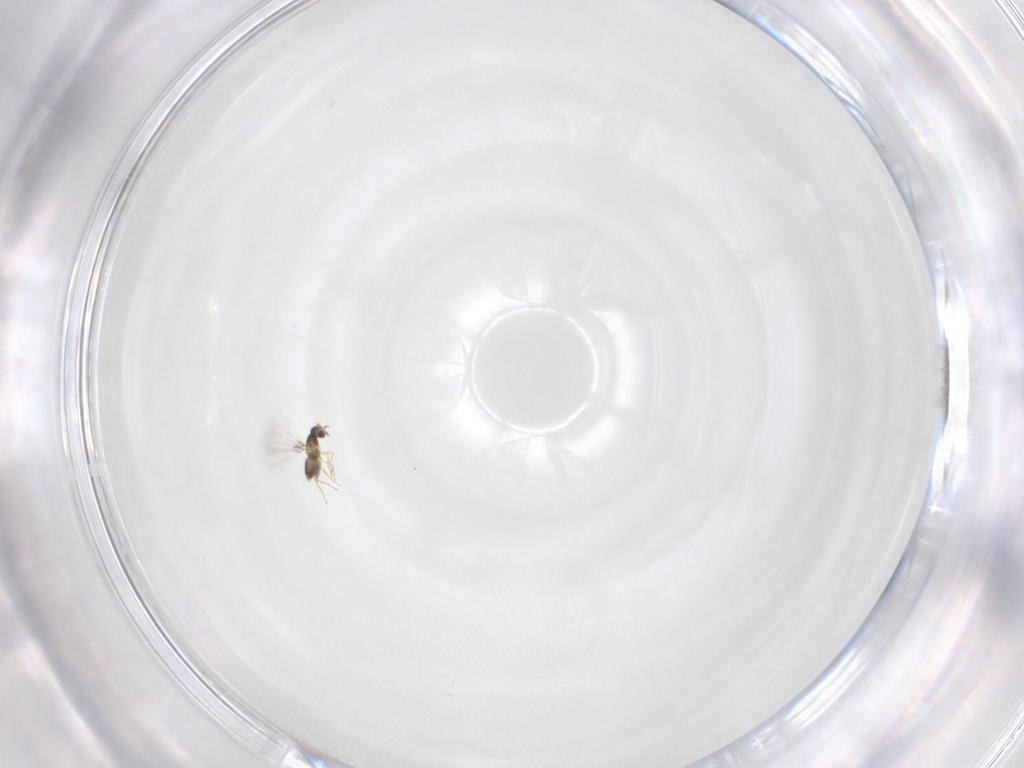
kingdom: Animalia
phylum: Arthropoda
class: Insecta
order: Hymenoptera
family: Mymaridae
